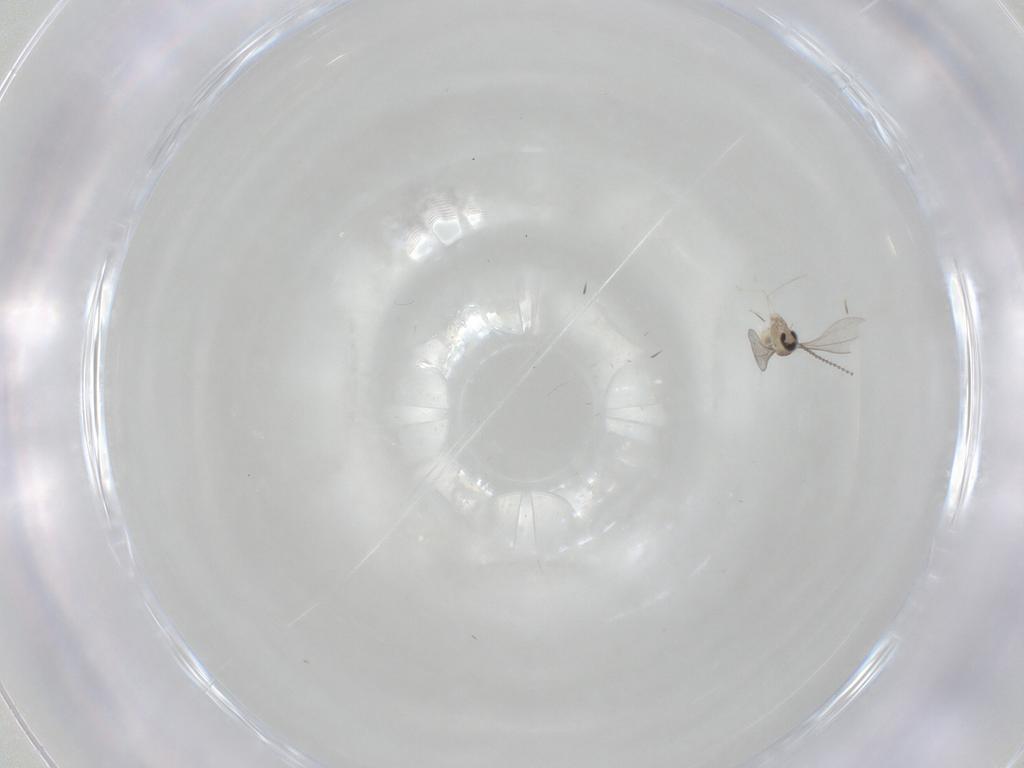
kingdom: Animalia
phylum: Arthropoda
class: Insecta
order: Diptera
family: Cecidomyiidae
